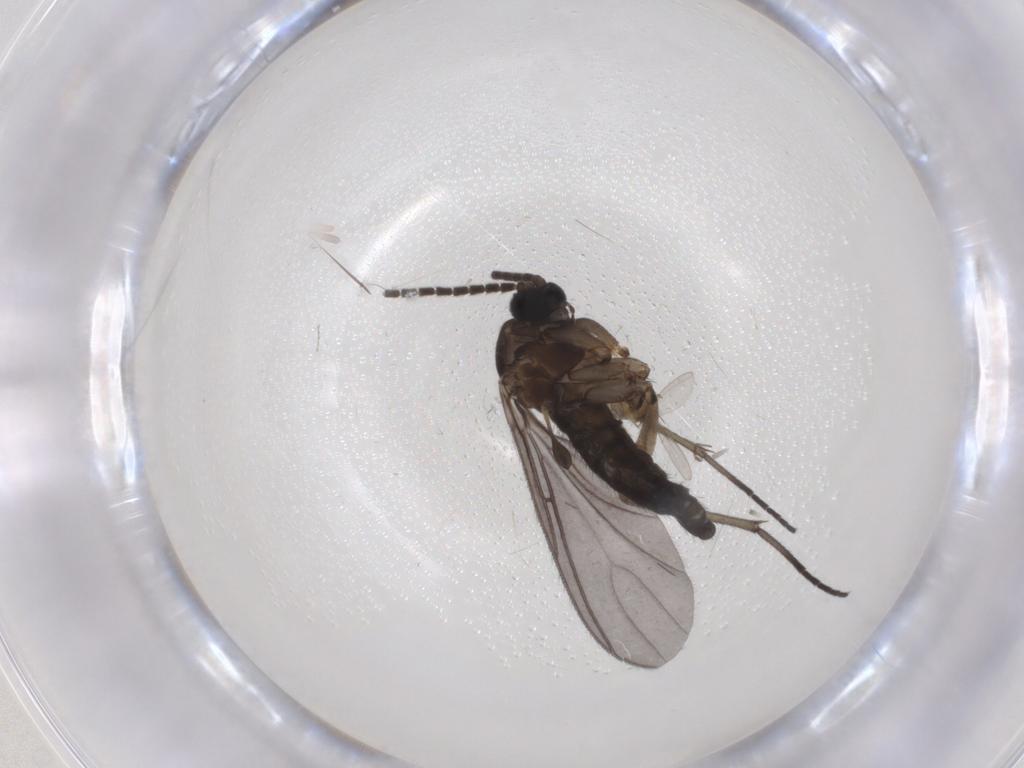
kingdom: Animalia
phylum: Arthropoda
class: Insecta
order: Diptera
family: Sciaridae
